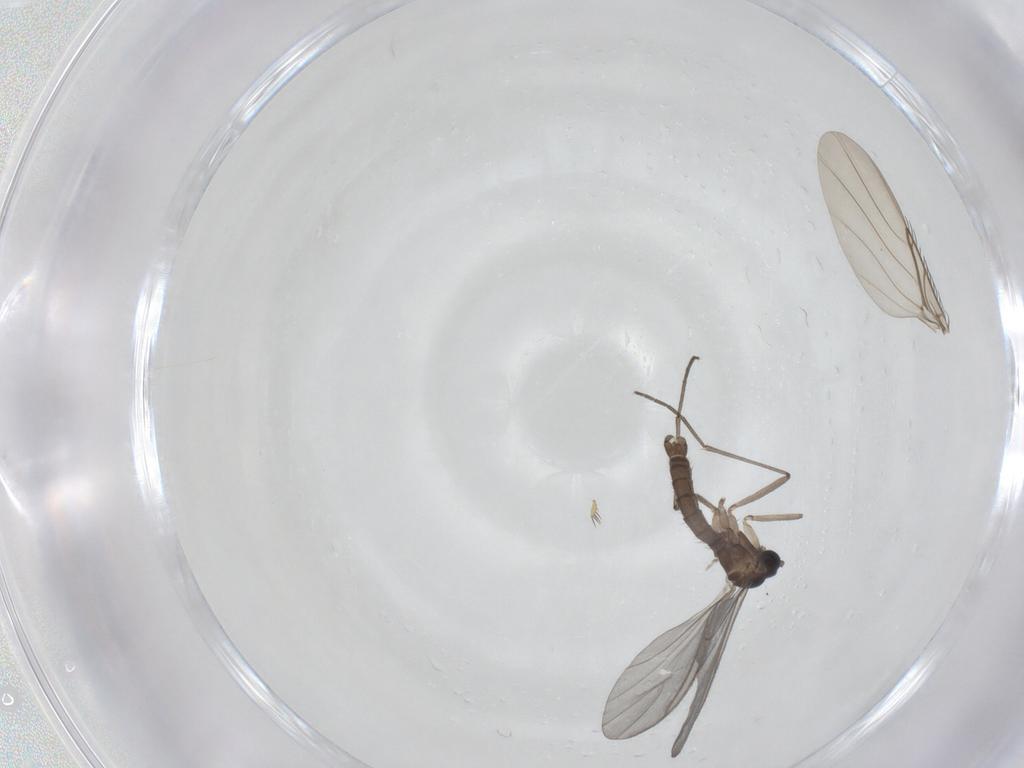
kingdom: Animalia
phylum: Arthropoda
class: Insecta
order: Diptera
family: Sciaridae
